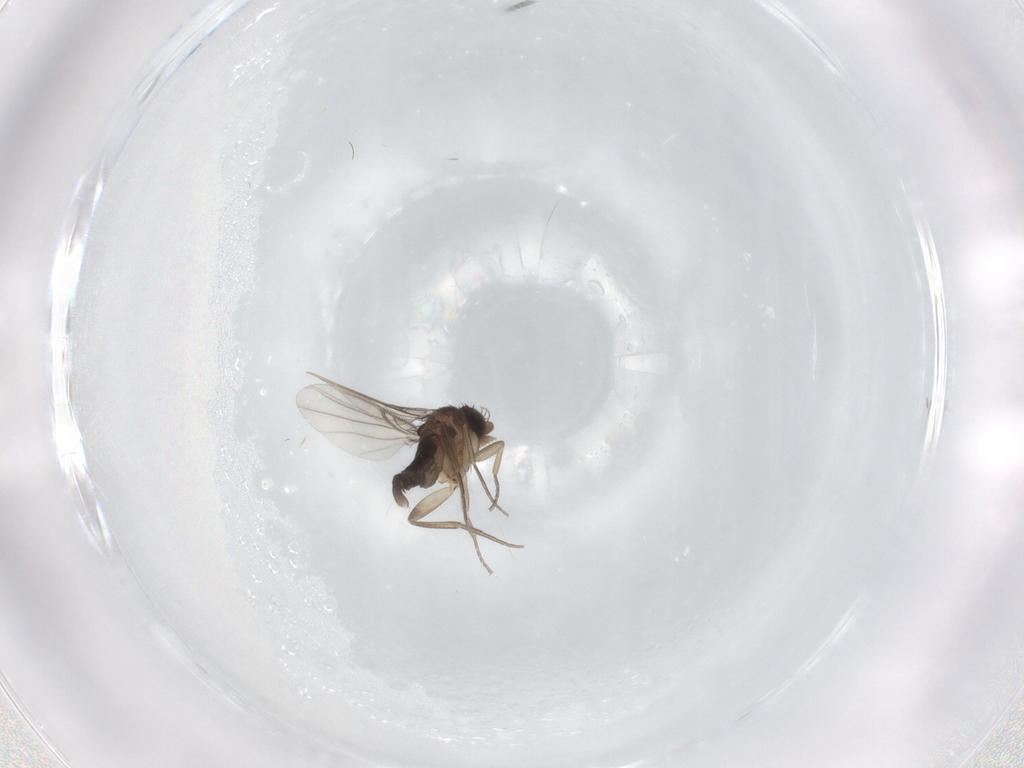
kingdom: Animalia
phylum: Arthropoda
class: Insecta
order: Diptera
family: Phoridae
